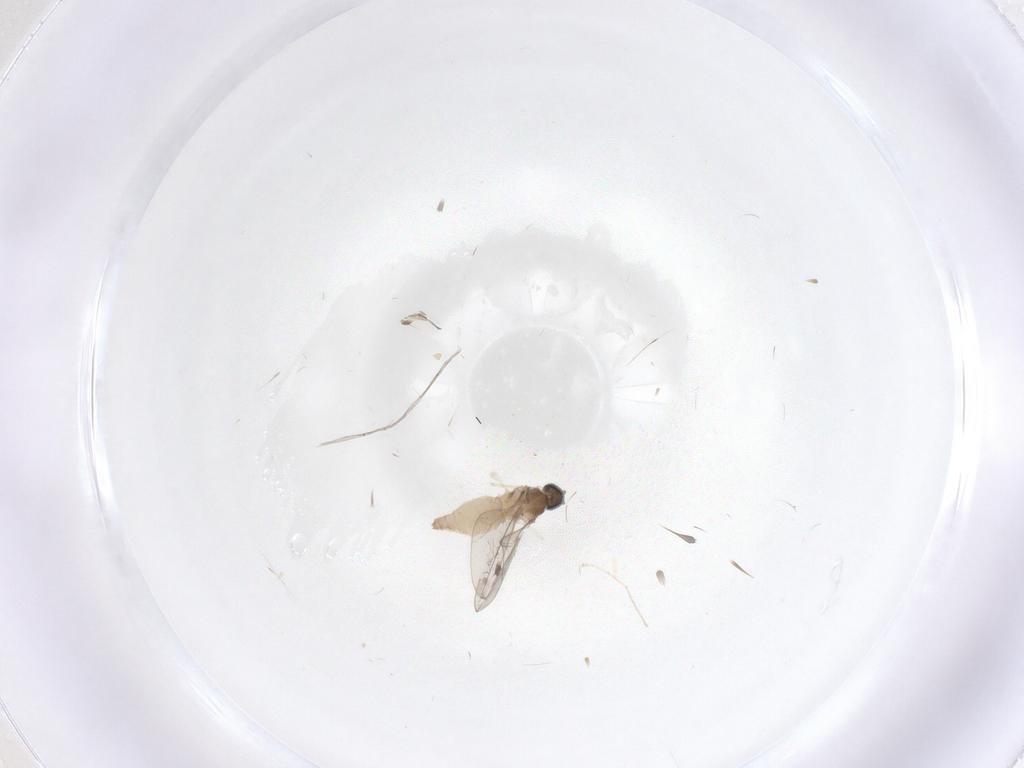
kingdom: Animalia
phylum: Arthropoda
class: Insecta
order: Diptera
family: Cecidomyiidae
